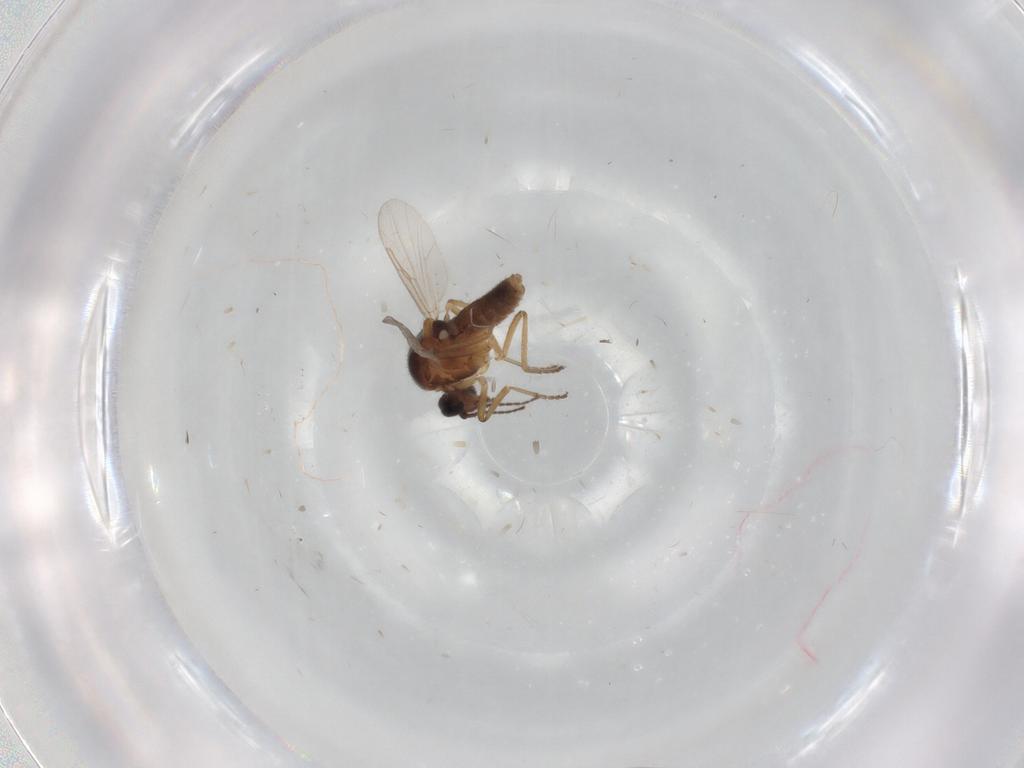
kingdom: Animalia
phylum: Arthropoda
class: Insecta
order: Diptera
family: Ceratopogonidae
